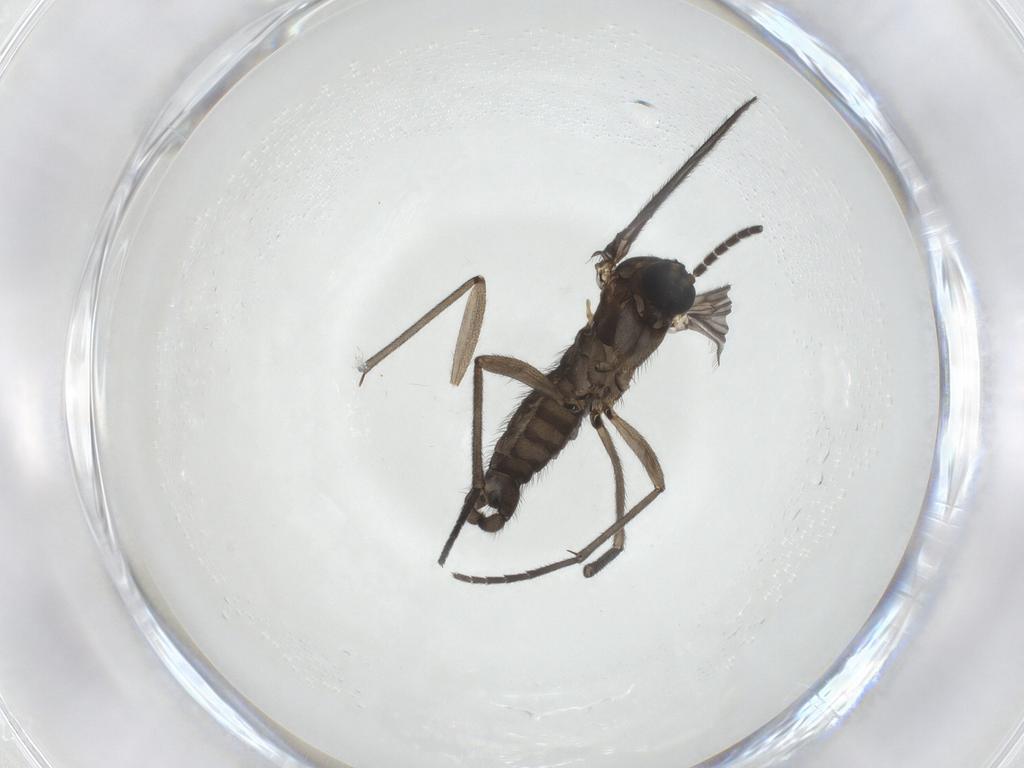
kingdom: Animalia
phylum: Arthropoda
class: Insecta
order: Diptera
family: Sciaridae
